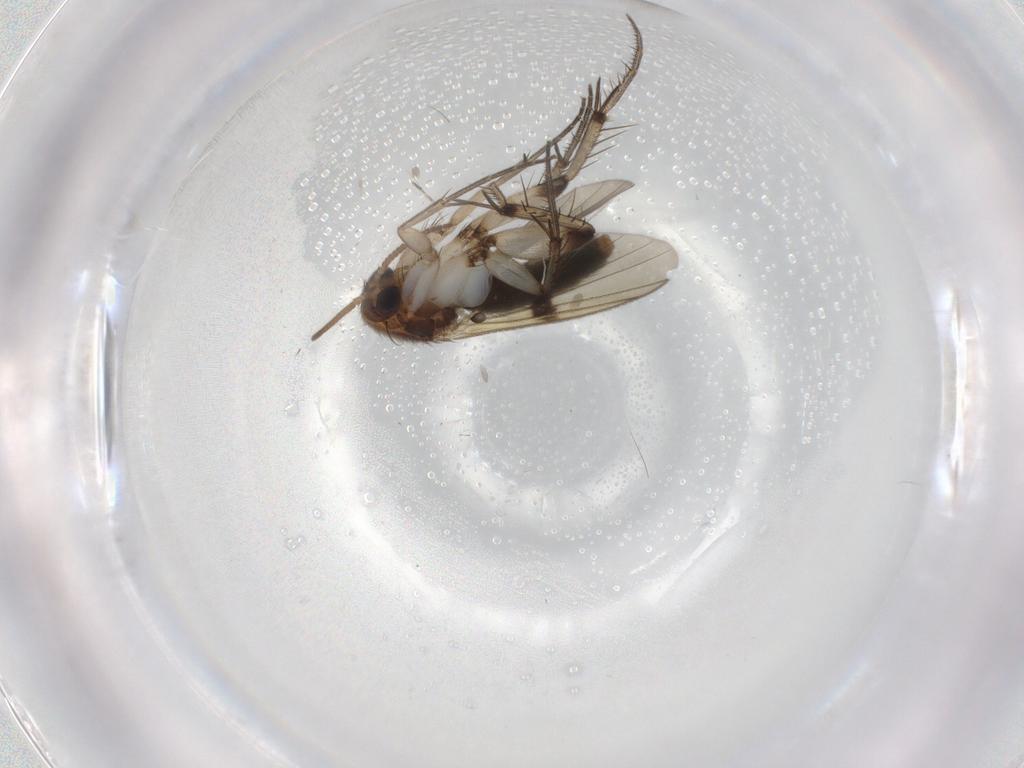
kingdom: Animalia
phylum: Arthropoda
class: Insecta
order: Diptera
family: Mycetophilidae
